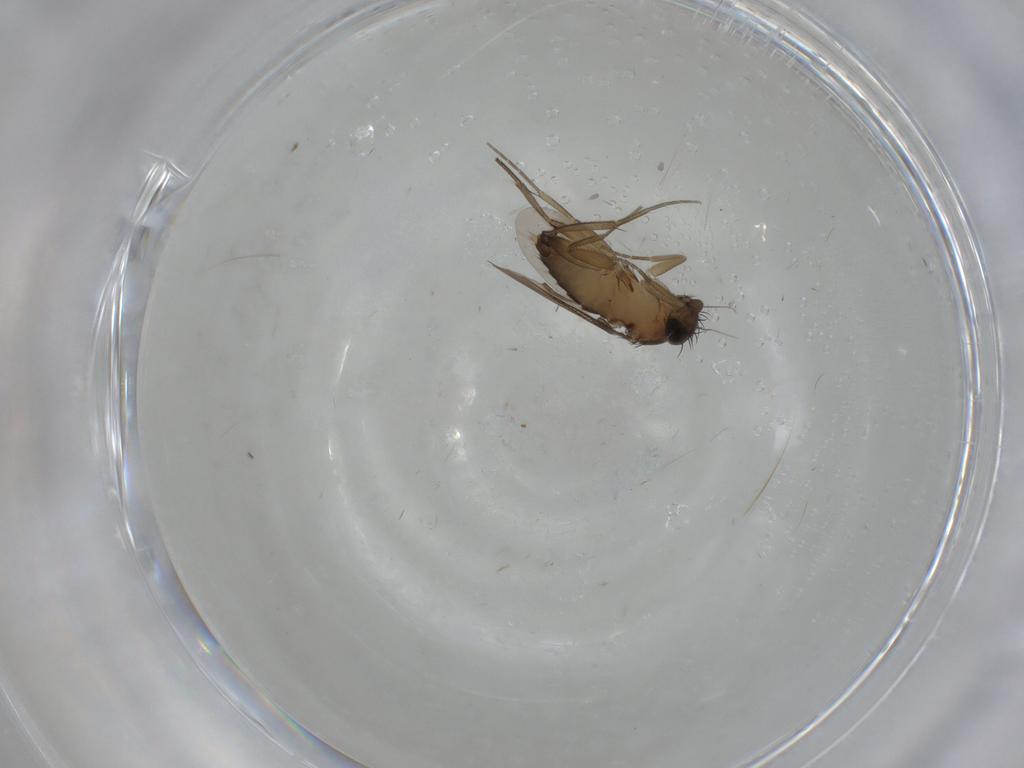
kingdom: Animalia
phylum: Arthropoda
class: Insecta
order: Diptera
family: Phoridae
